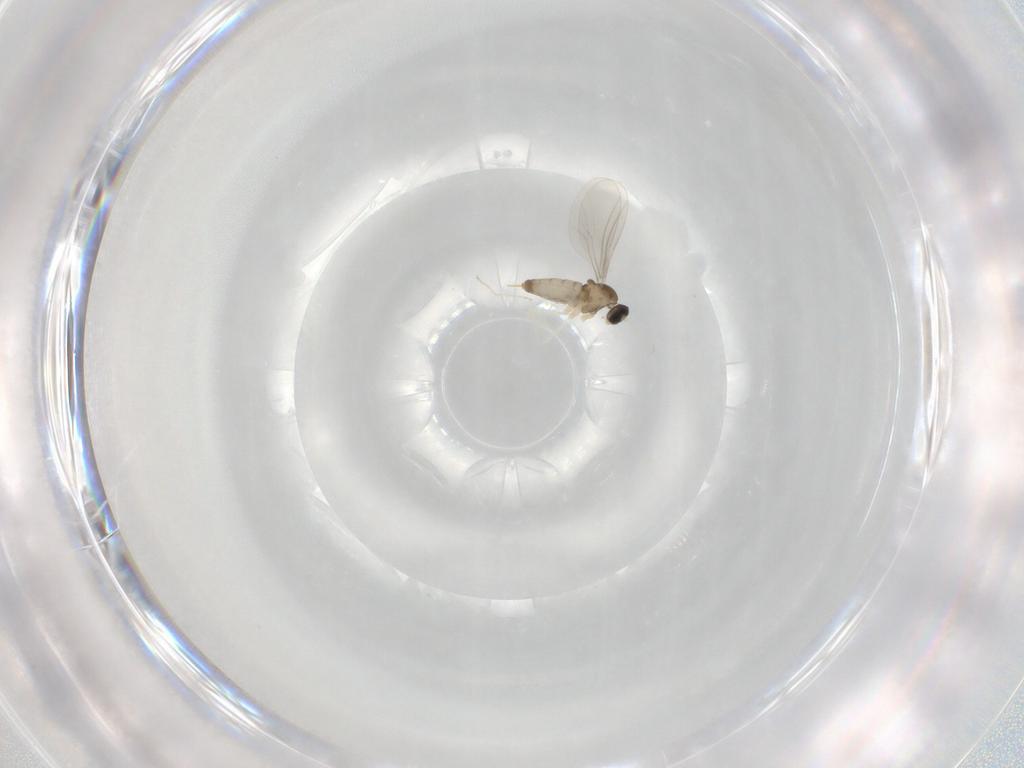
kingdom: Animalia
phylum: Arthropoda
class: Insecta
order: Diptera
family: Cecidomyiidae
